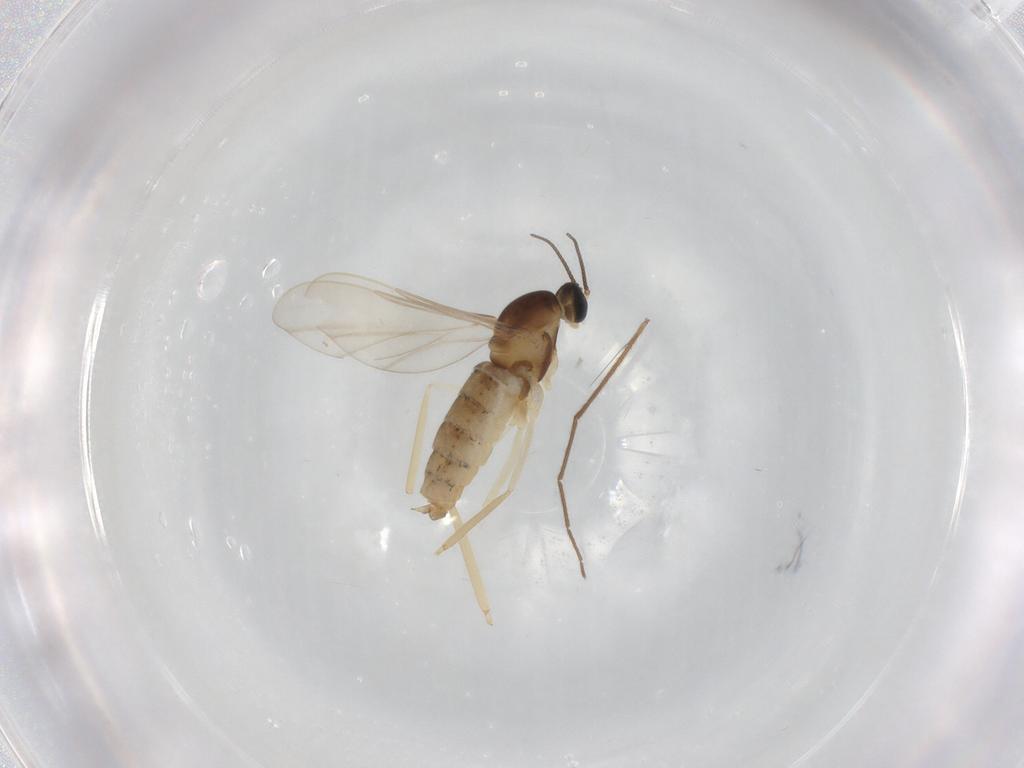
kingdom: Animalia
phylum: Arthropoda
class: Insecta
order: Diptera
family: Cecidomyiidae
